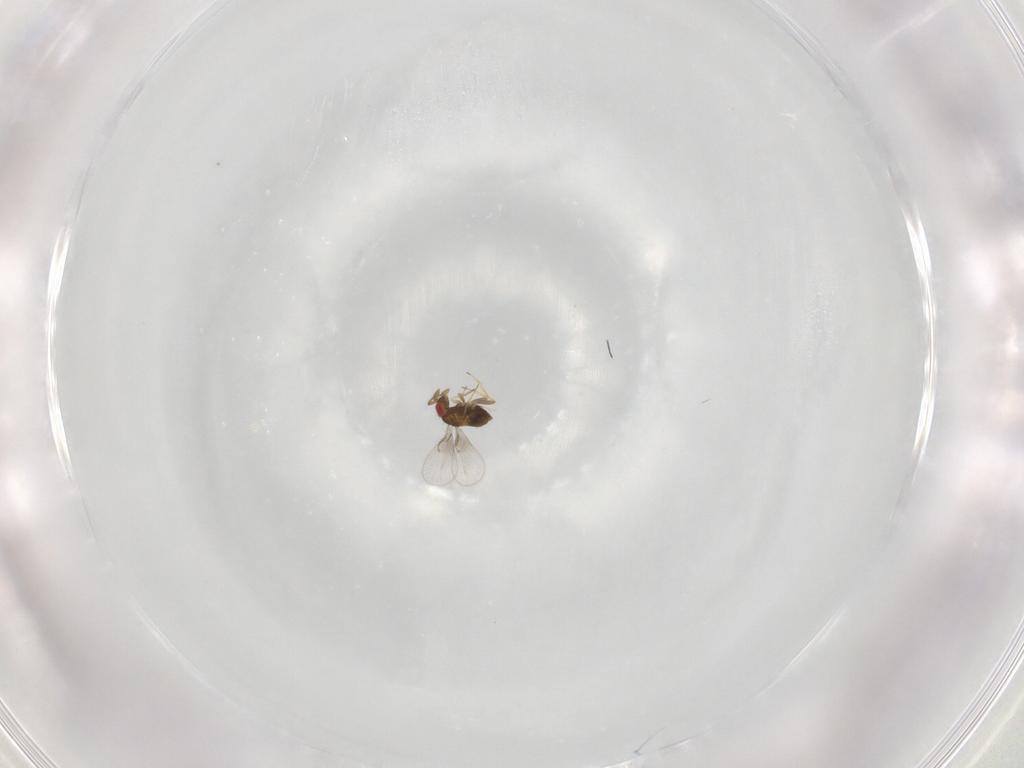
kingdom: Animalia
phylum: Arthropoda
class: Insecta
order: Hymenoptera
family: Trichogrammatidae
